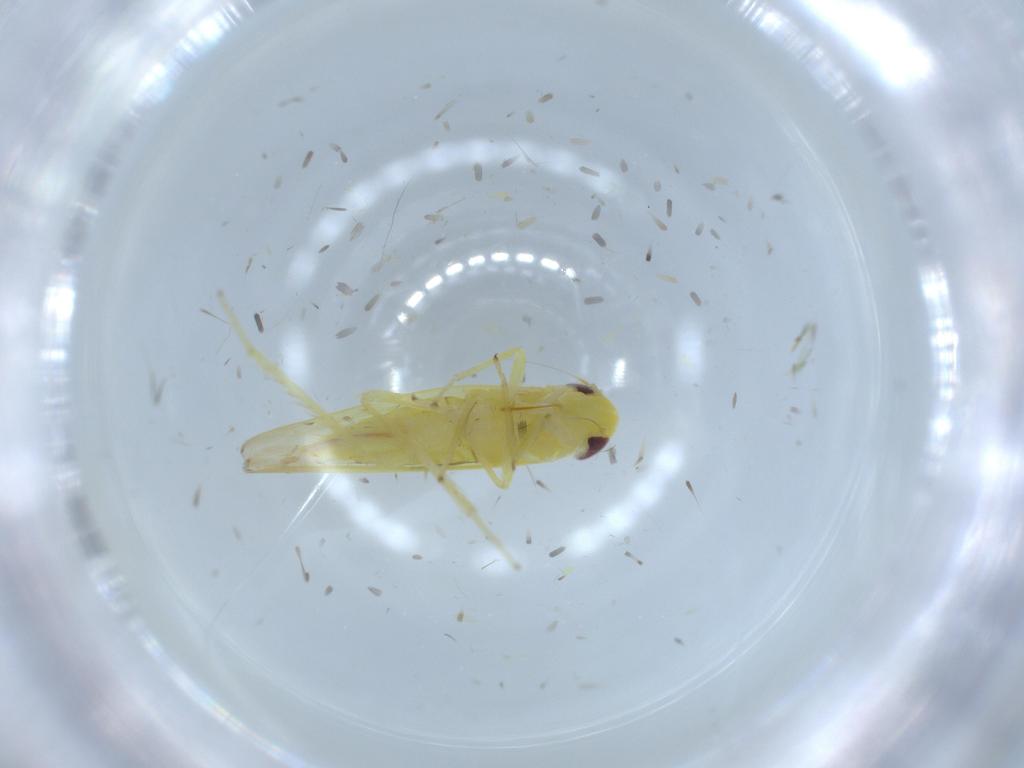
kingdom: Animalia
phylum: Arthropoda
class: Insecta
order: Hemiptera
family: Cicadellidae
